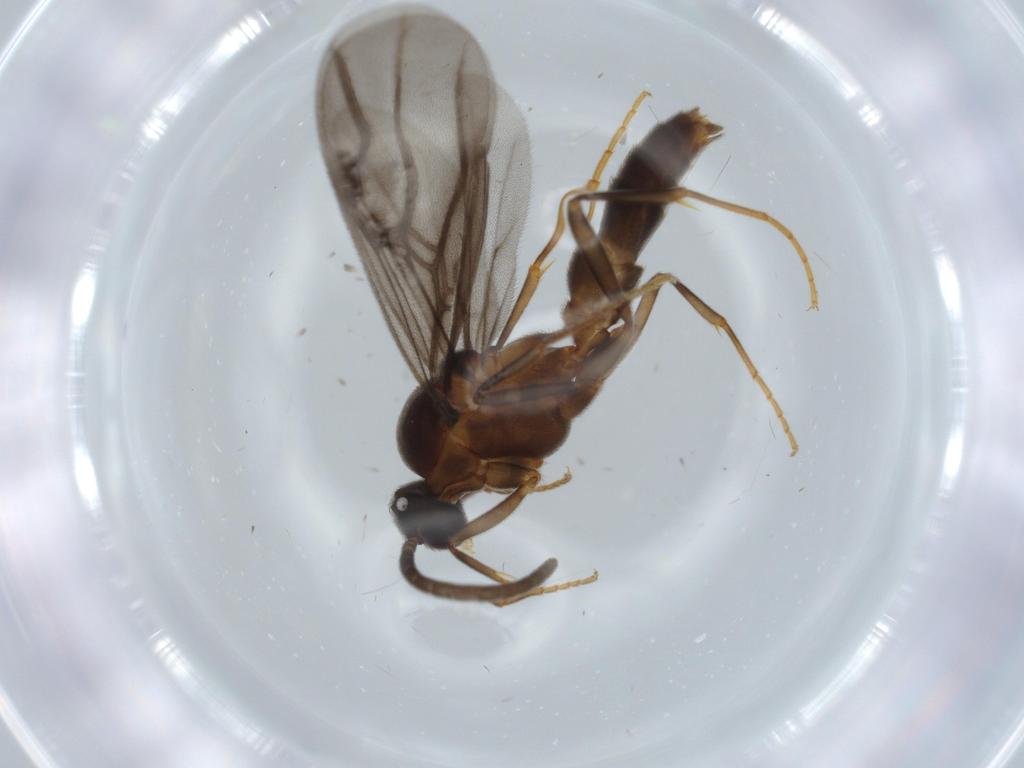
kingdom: Animalia
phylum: Arthropoda
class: Insecta
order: Hymenoptera
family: Formicidae
